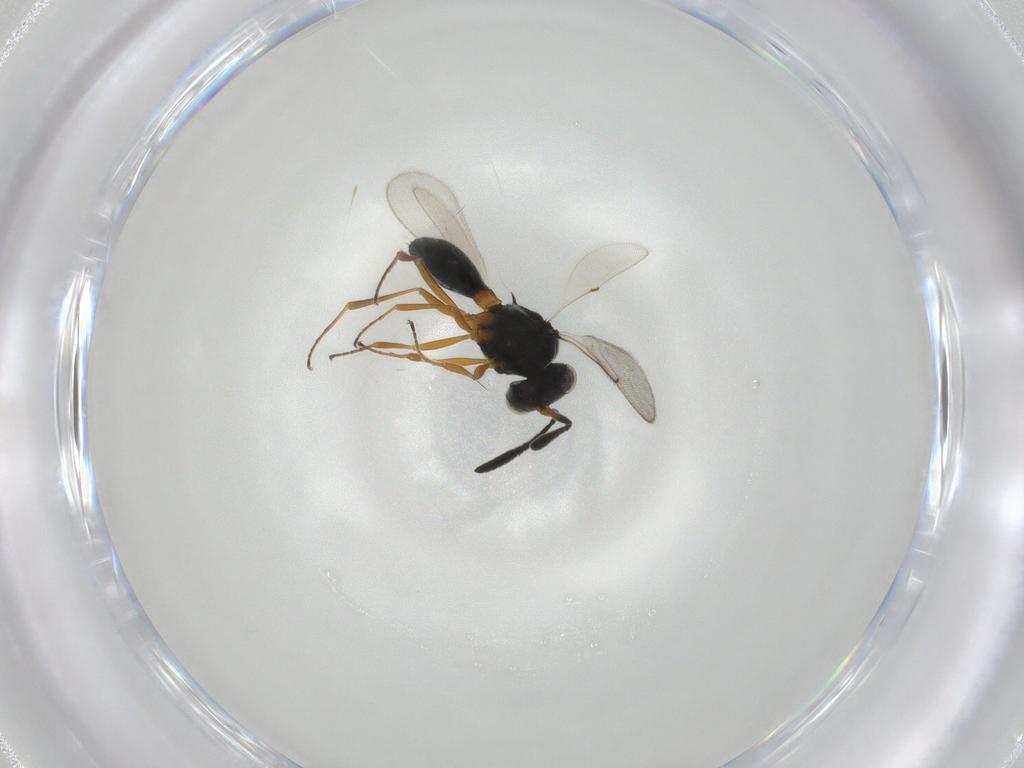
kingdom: Animalia
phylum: Arthropoda
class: Insecta
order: Hymenoptera
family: Scelionidae
